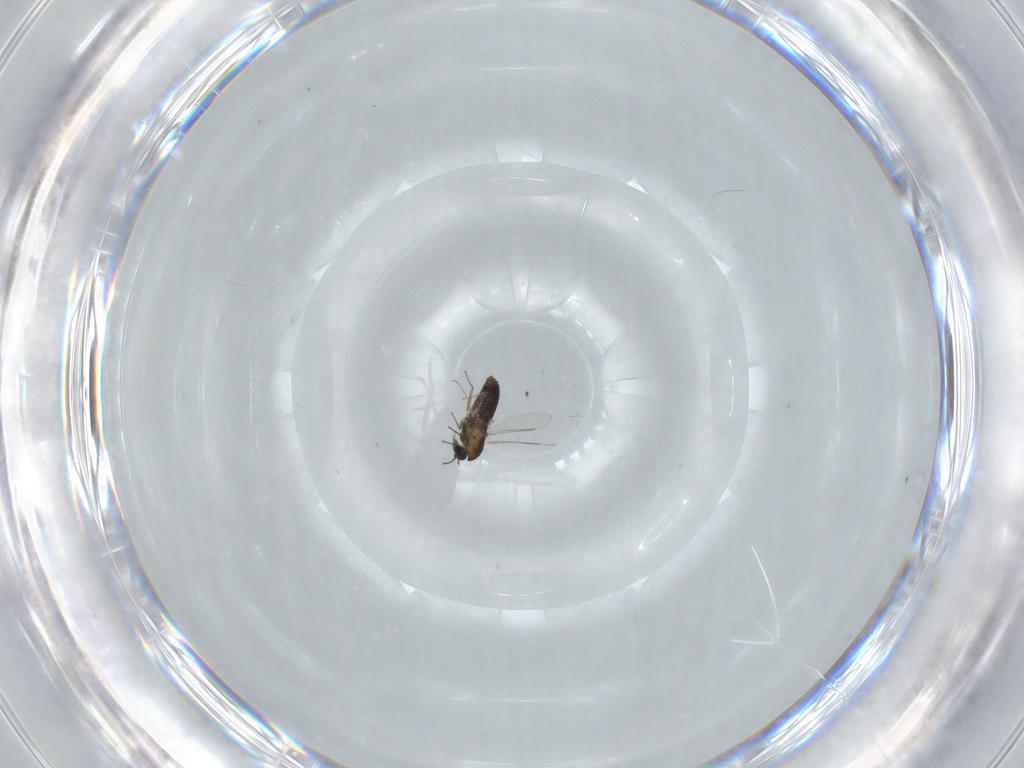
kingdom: Animalia
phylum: Arthropoda
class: Insecta
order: Diptera
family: Chironomidae
